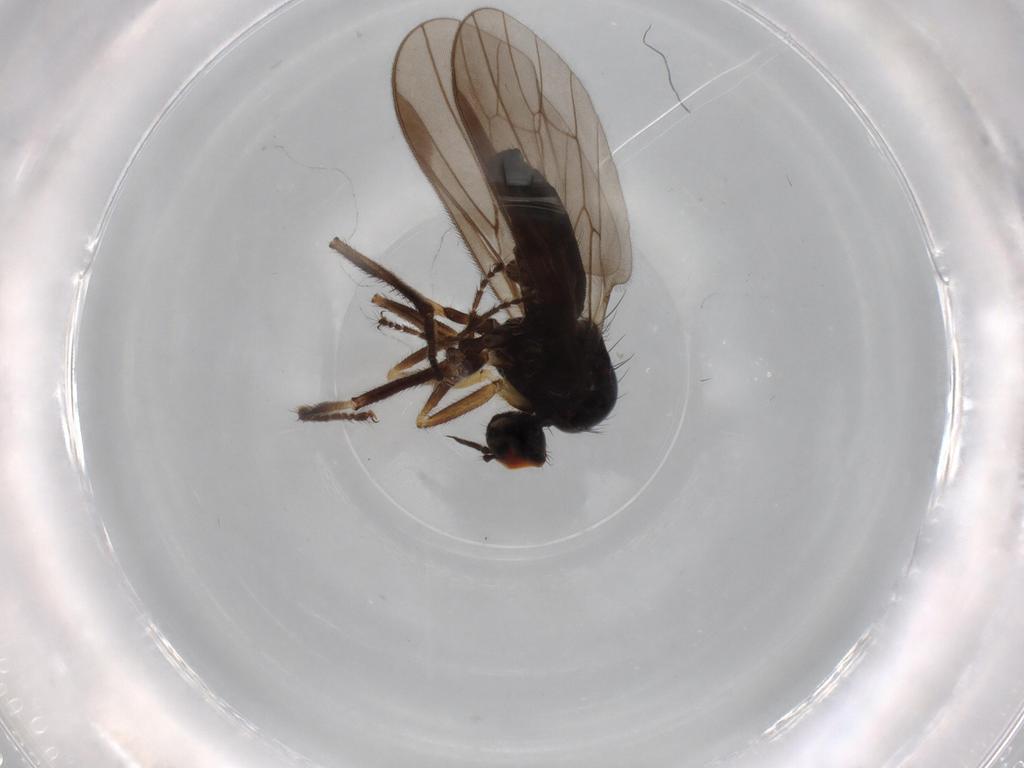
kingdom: Animalia
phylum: Arthropoda
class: Insecta
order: Diptera
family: Hybotidae
